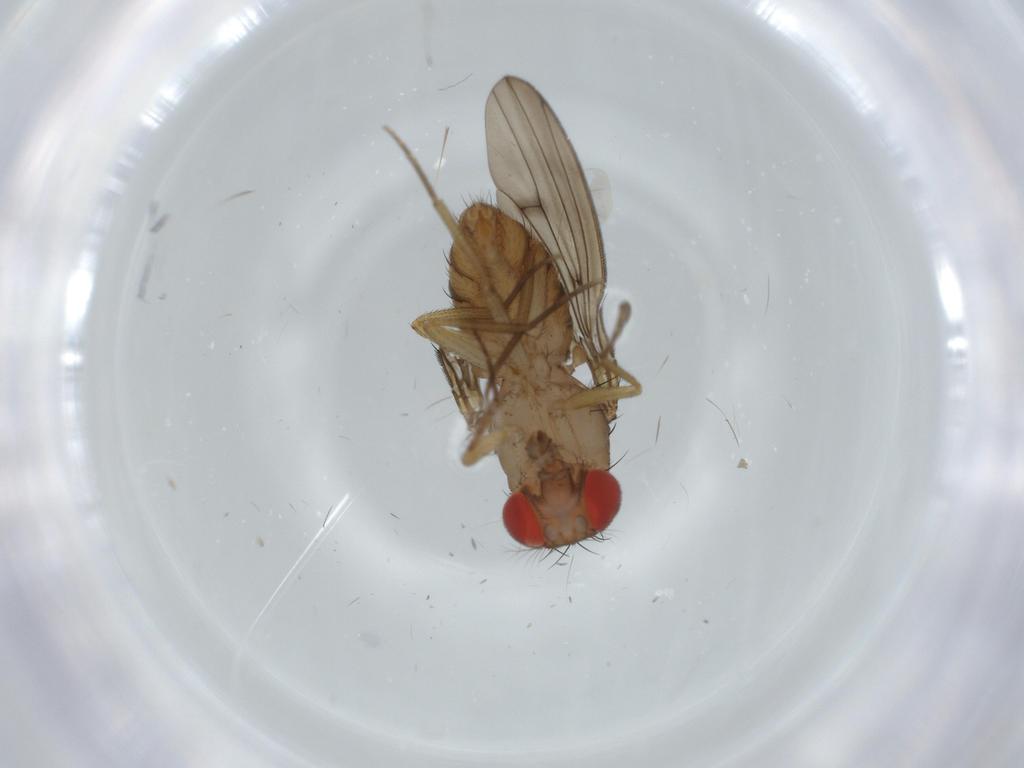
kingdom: Animalia
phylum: Arthropoda
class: Insecta
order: Diptera
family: Drosophilidae
